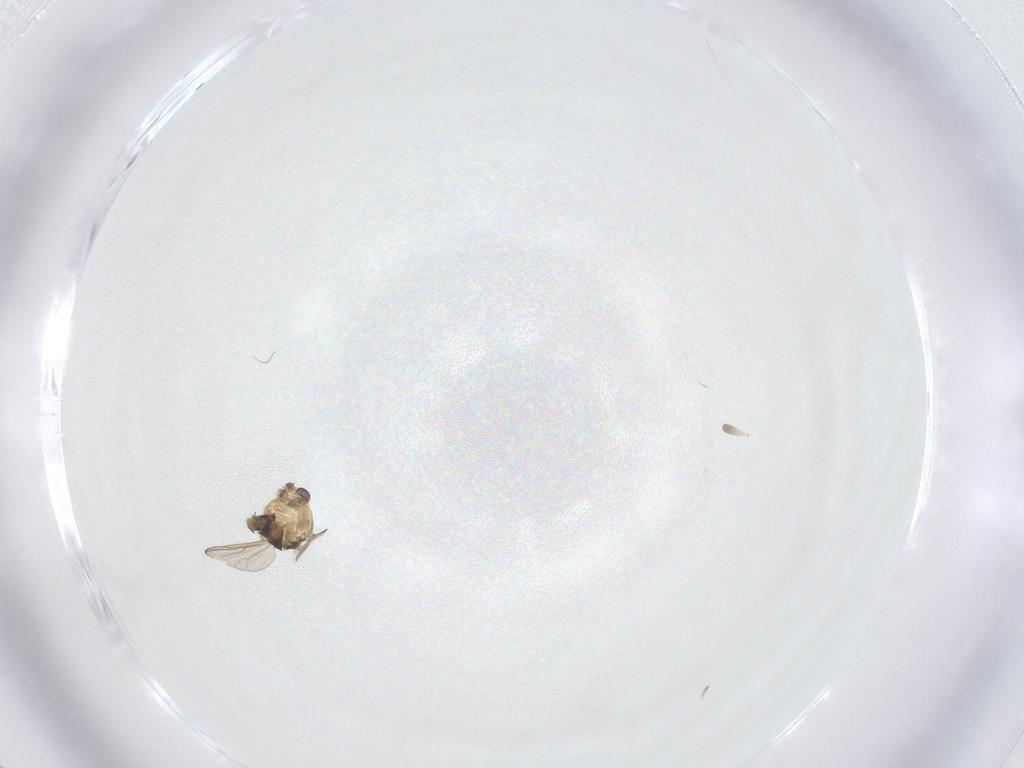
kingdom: Animalia
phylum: Arthropoda
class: Insecta
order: Diptera
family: Chironomidae
